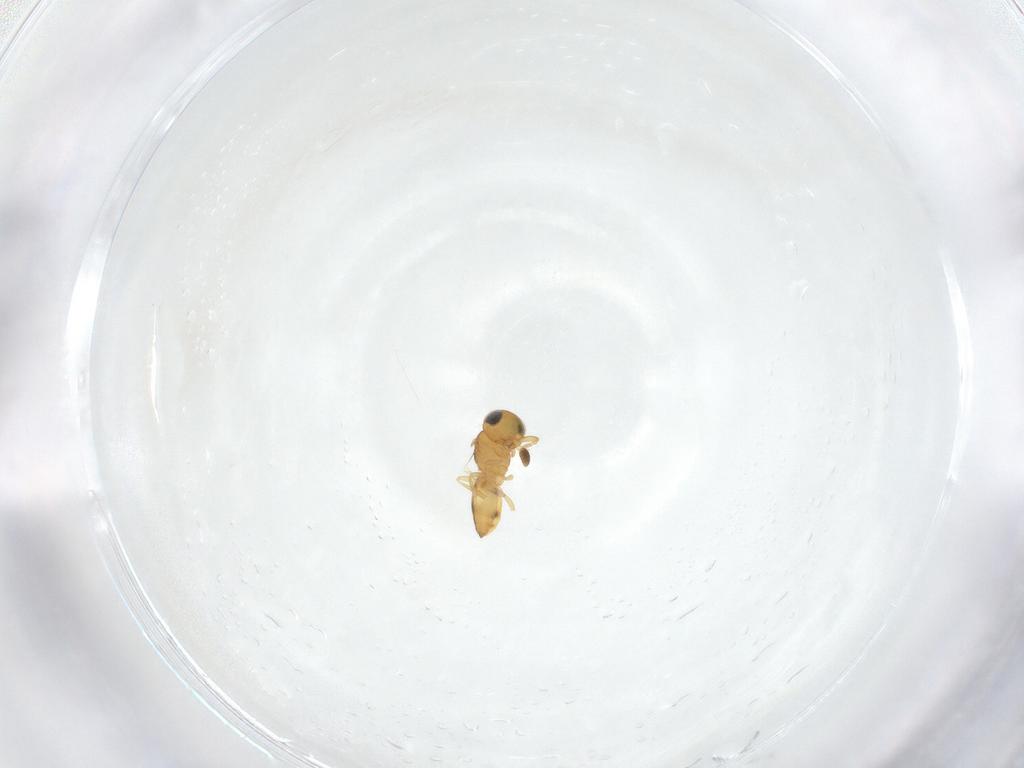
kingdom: Animalia
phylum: Arthropoda
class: Insecta
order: Hymenoptera
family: Scelionidae
